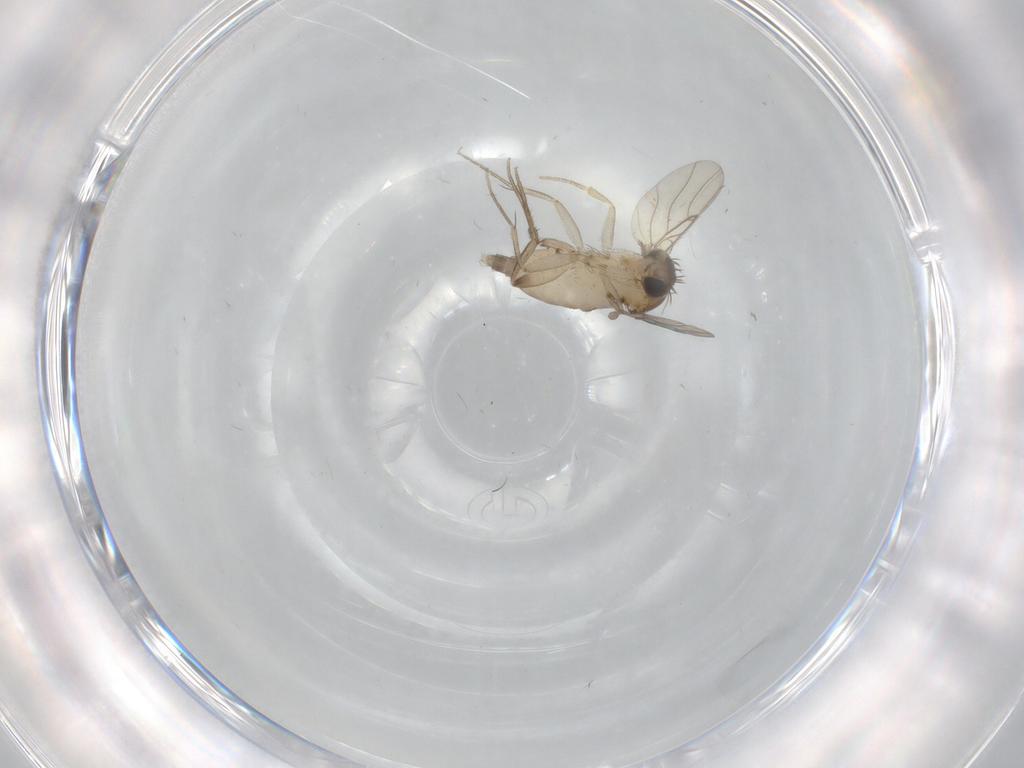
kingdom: Animalia
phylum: Arthropoda
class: Insecta
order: Diptera
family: Phoridae
